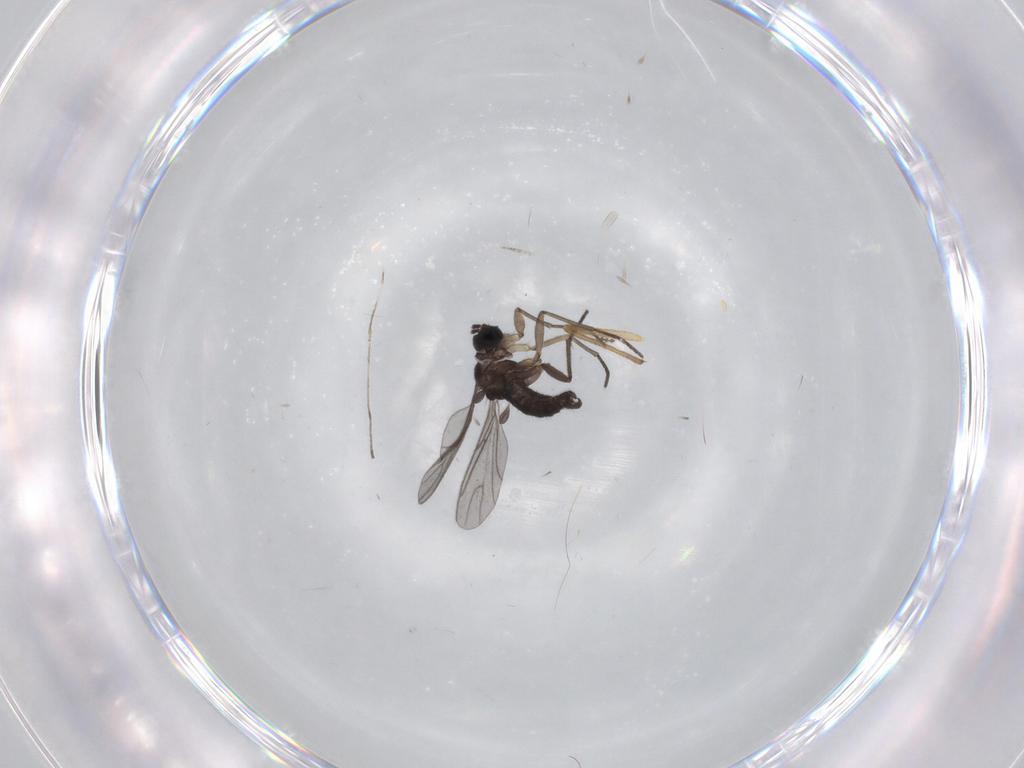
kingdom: Animalia
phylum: Arthropoda
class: Insecta
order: Diptera
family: Sciaridae
